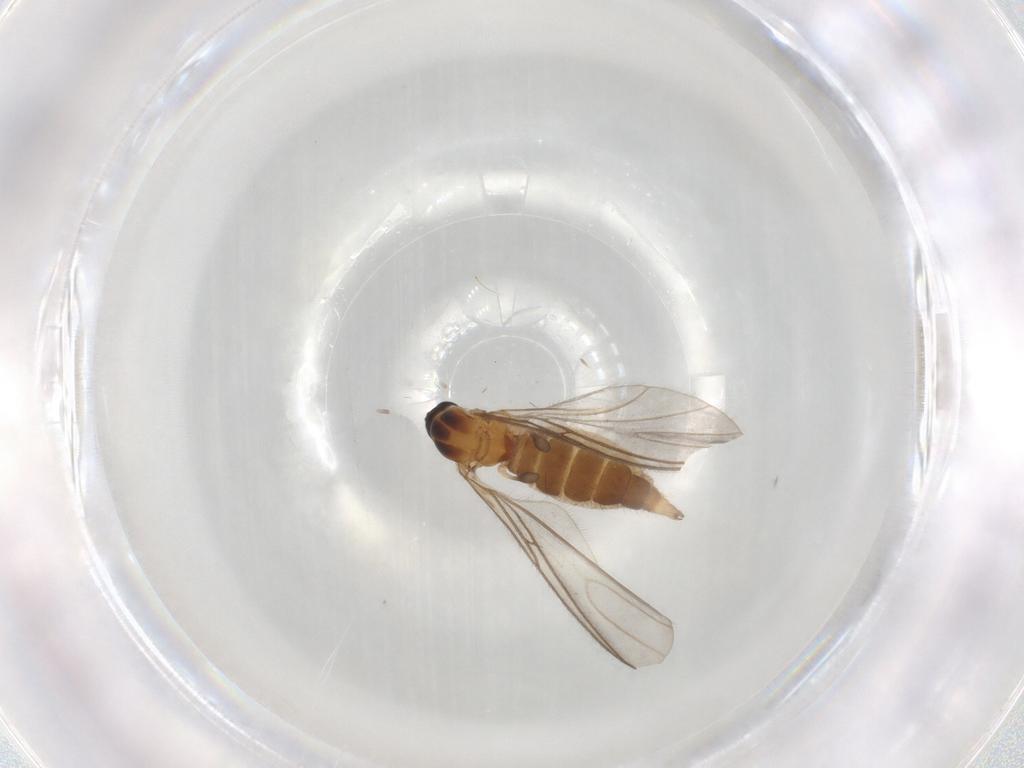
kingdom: Animalia
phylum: Arthropoda
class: Insecta
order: Diptera
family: Sciaridae
